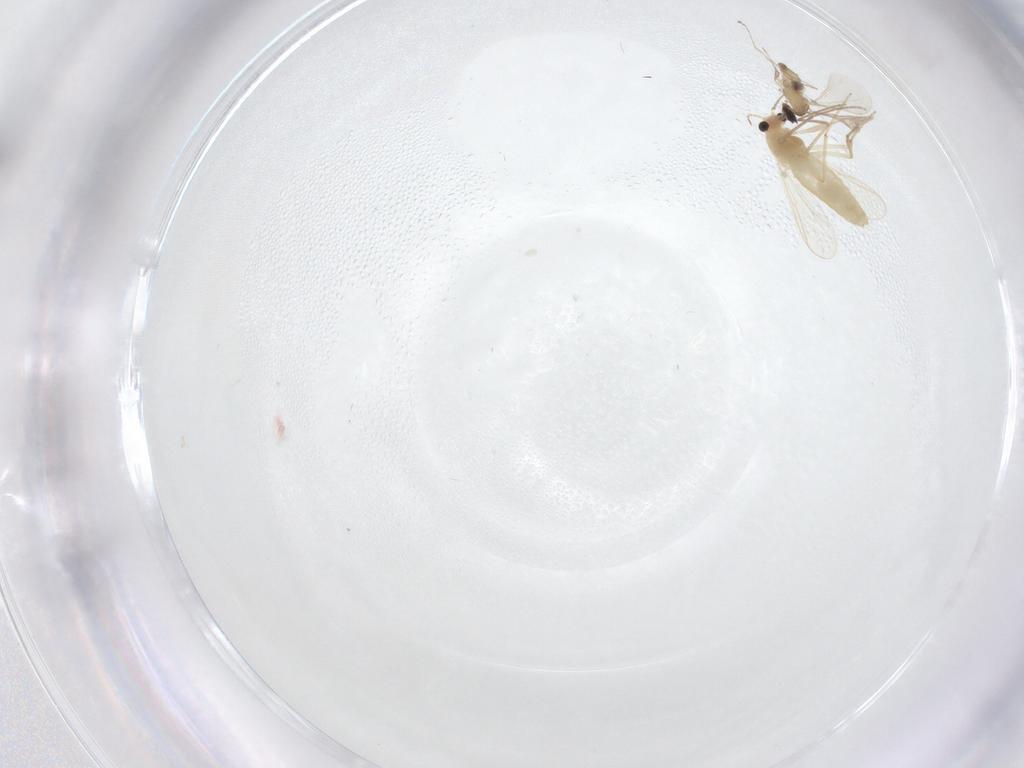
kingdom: Animalia
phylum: Arthropoda
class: Insecta
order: Diptera
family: Chironomidae
